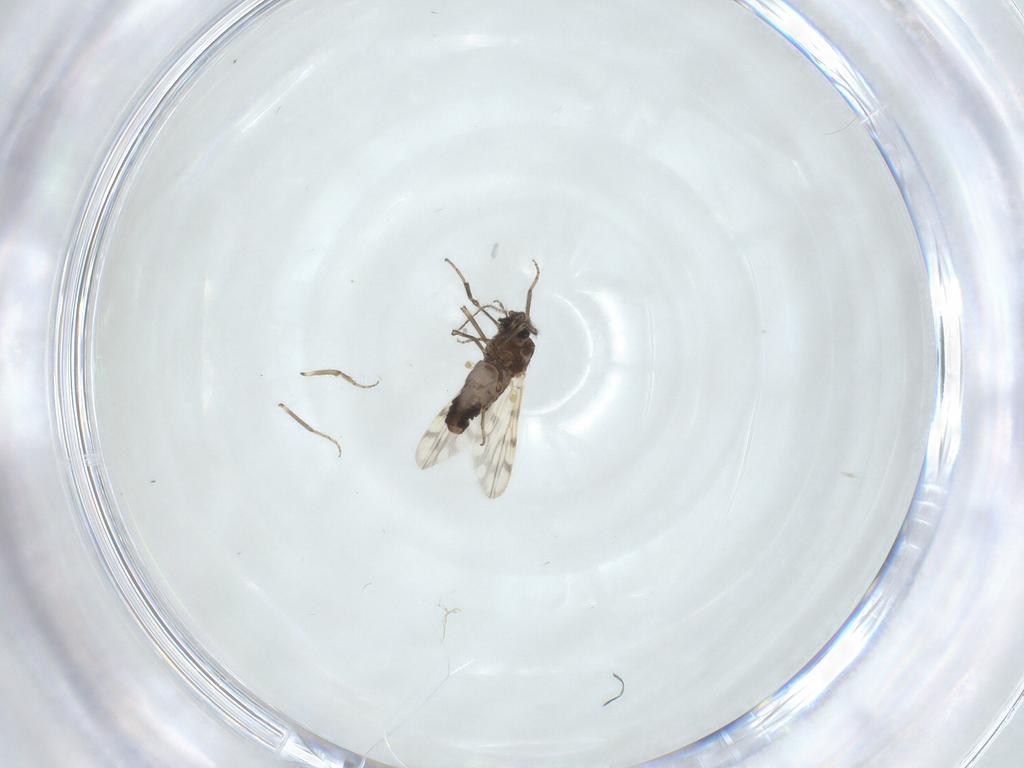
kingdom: Animalia
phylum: Arthropoda
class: Insecta
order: Diptera
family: Ceratopogonidae
